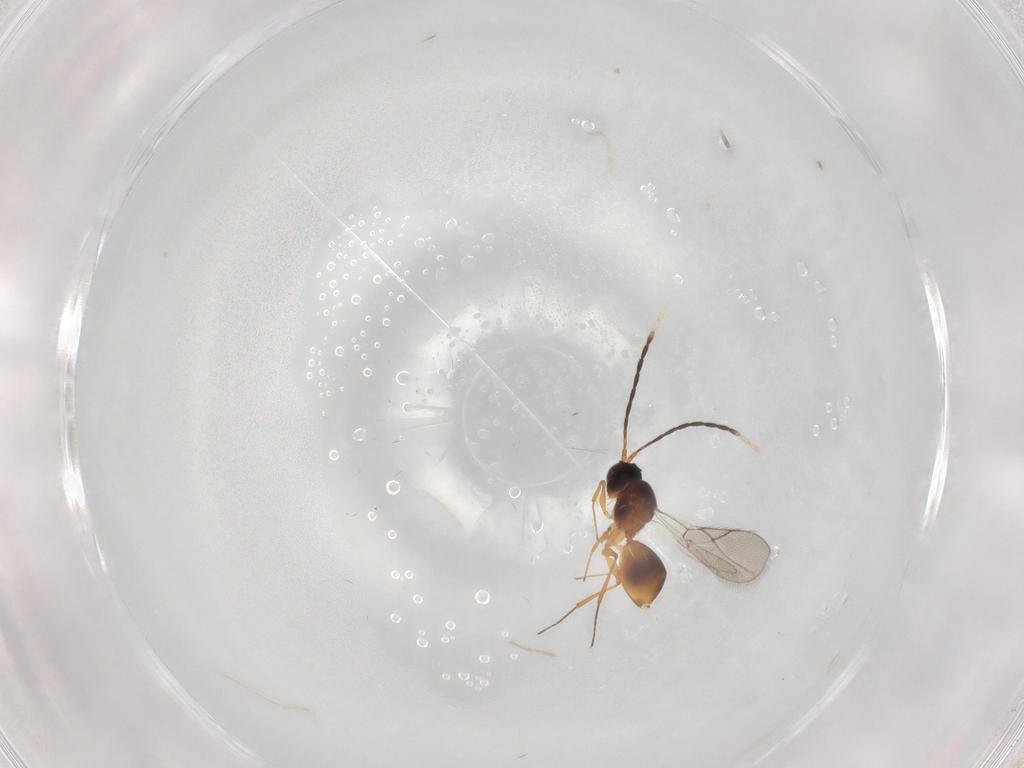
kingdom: Animalia
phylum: Arthropoda
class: Insecta
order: Hymenoptera
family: Figitidae
